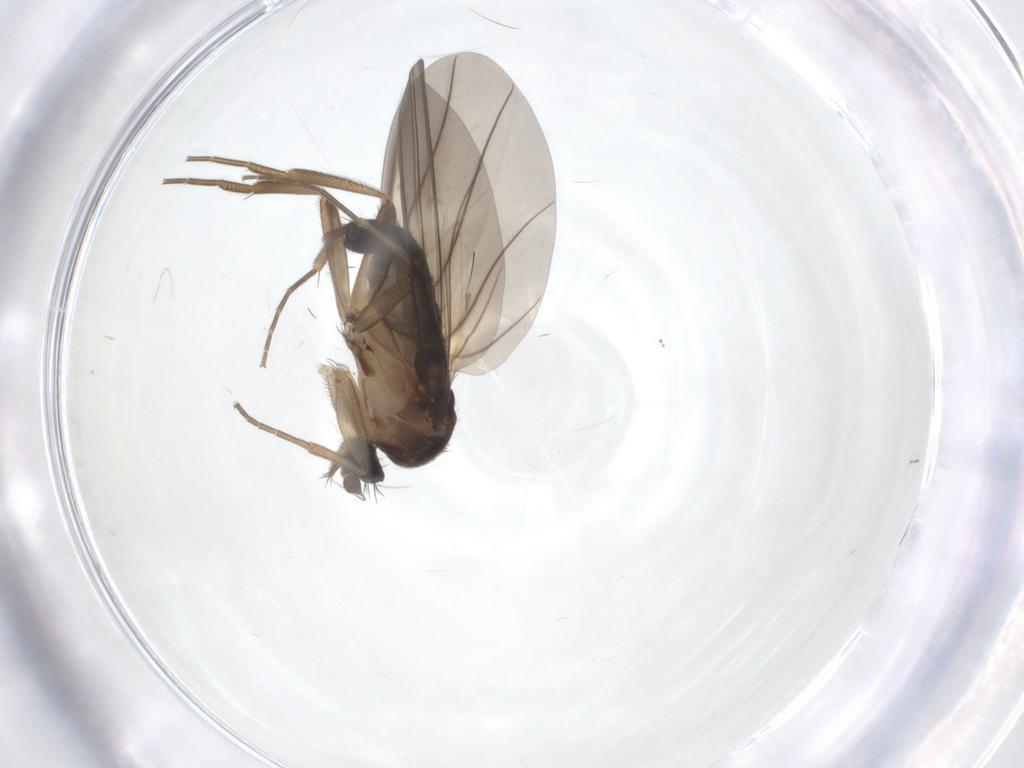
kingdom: Animalia
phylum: Arthropoda
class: Insecta
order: Diptera
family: Phoridae
